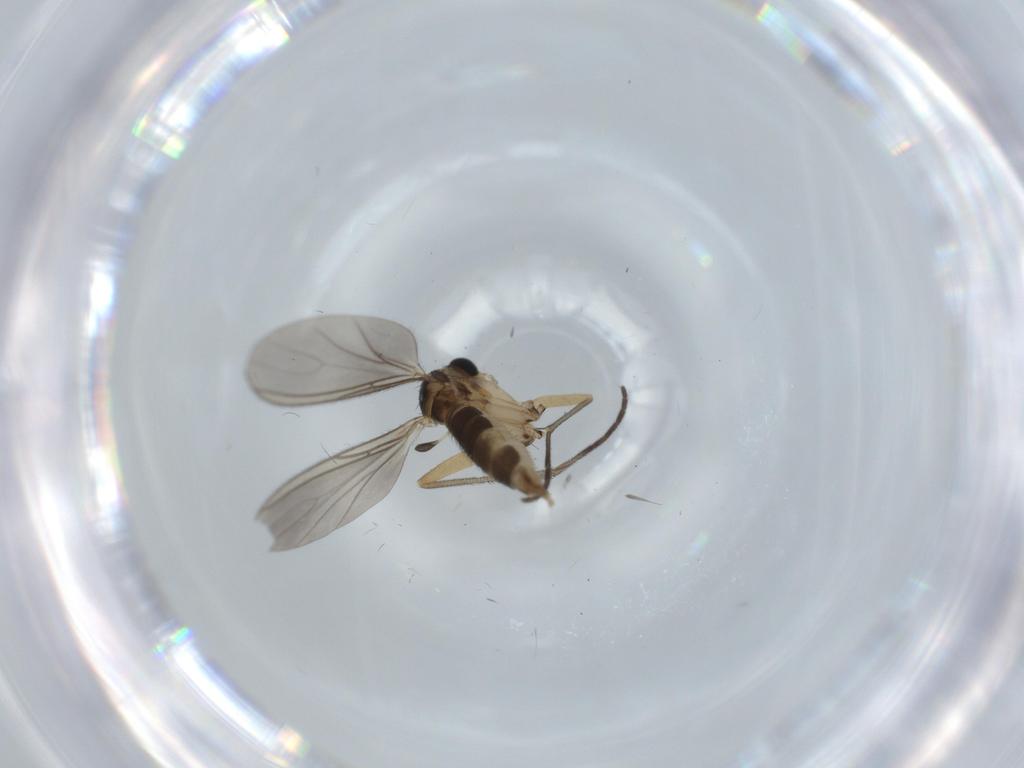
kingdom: Animalia
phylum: Arthropoda
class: Insecta
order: Diptera
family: Sciaridae
